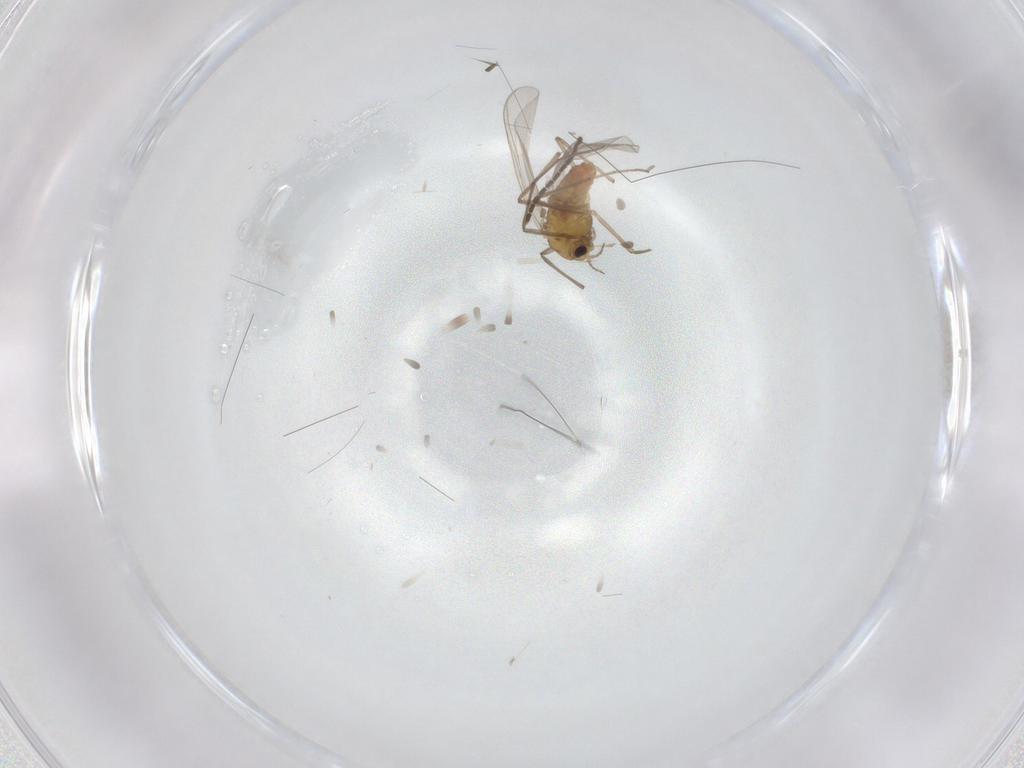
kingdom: Animalia
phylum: Arthropoda
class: Insecta
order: Diptera
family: Chironomidae
